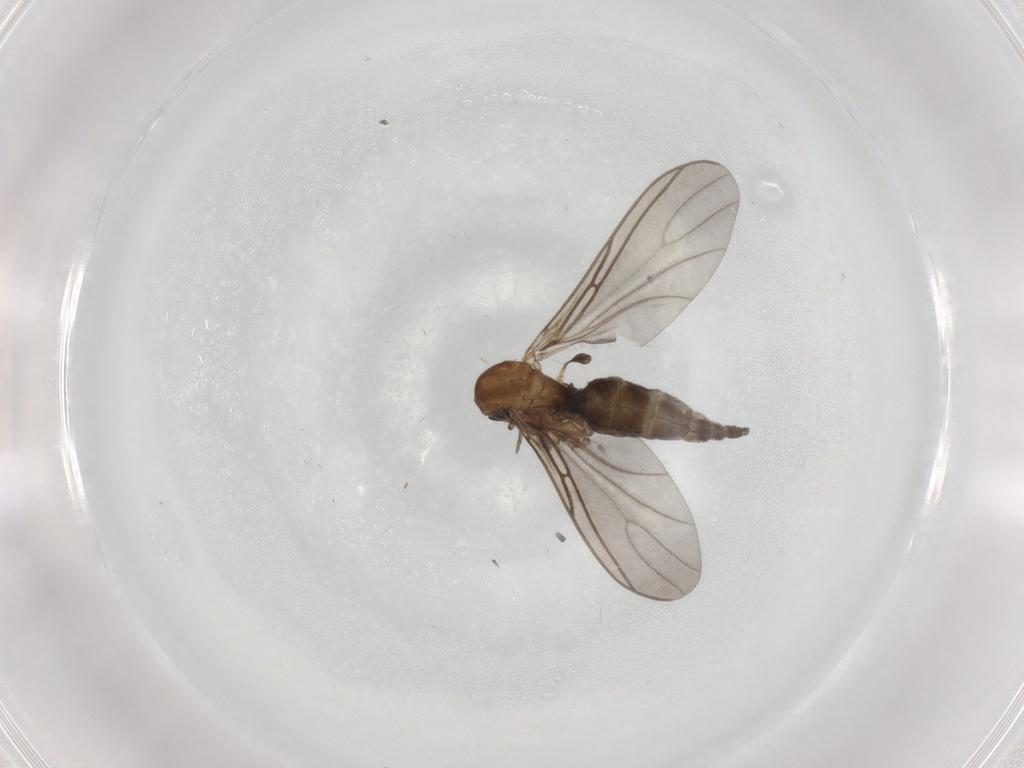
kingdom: Animalia
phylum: Arthropoda
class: Insecta
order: Diptera
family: Sciaridae
